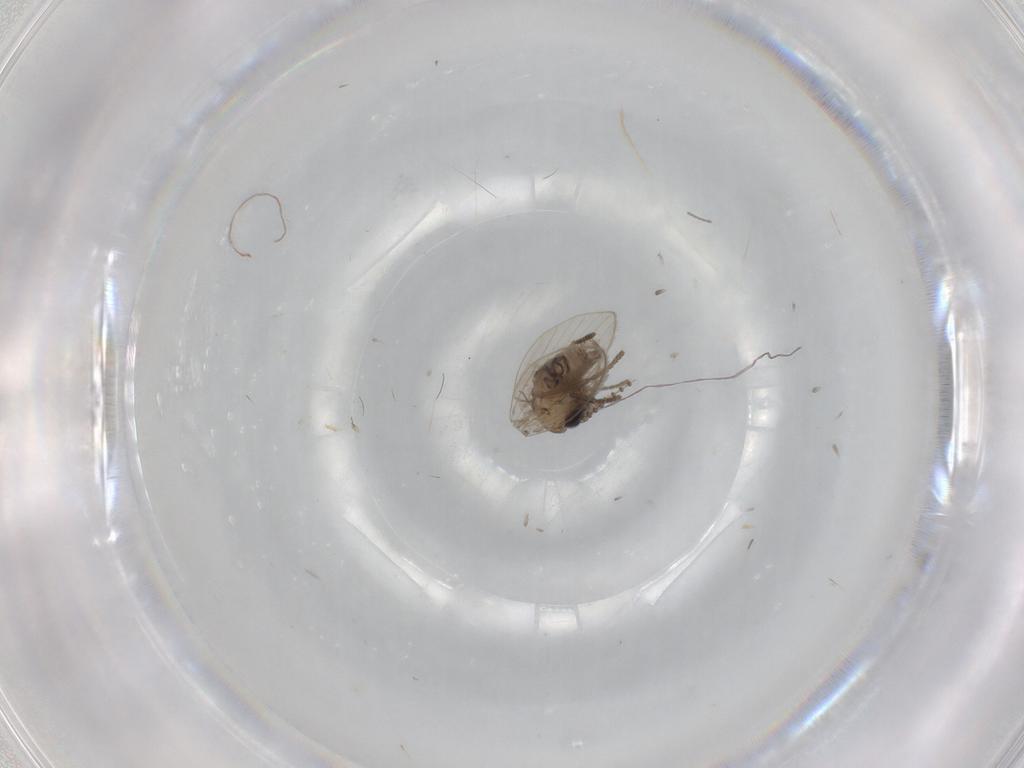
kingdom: Animalia
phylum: Arthropoda
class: Insecta
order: Diptera
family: Psychodidae
